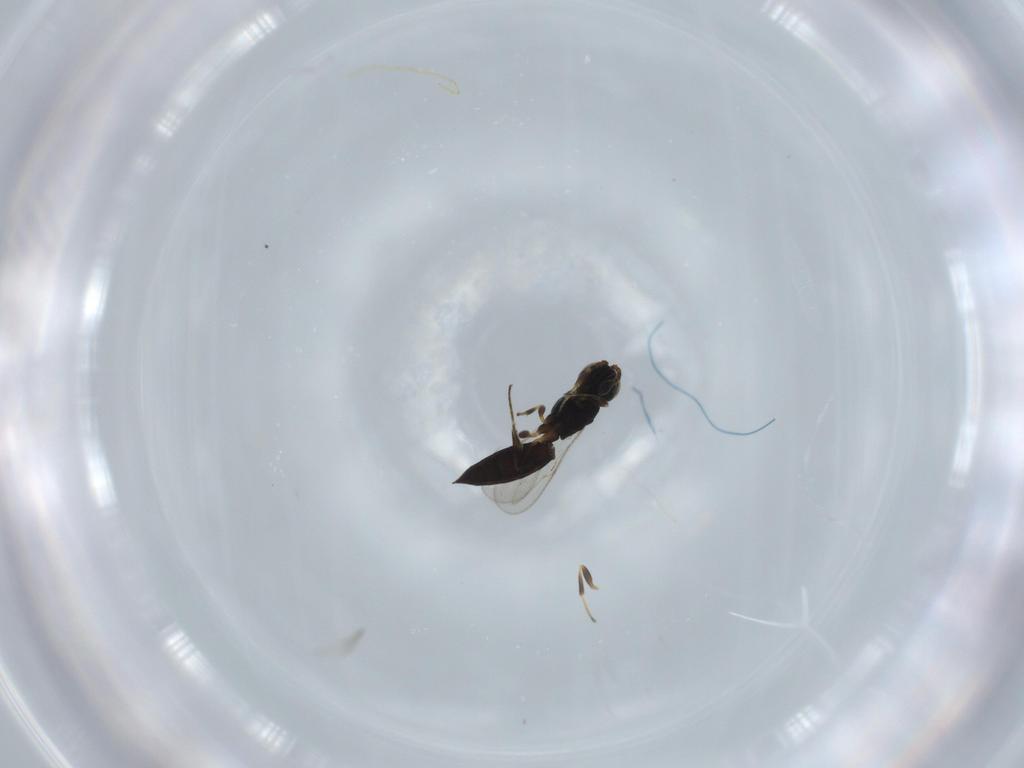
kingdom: Animalia
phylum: Arthropoda
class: Insecta
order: Hymenoptera
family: Scelionidae
